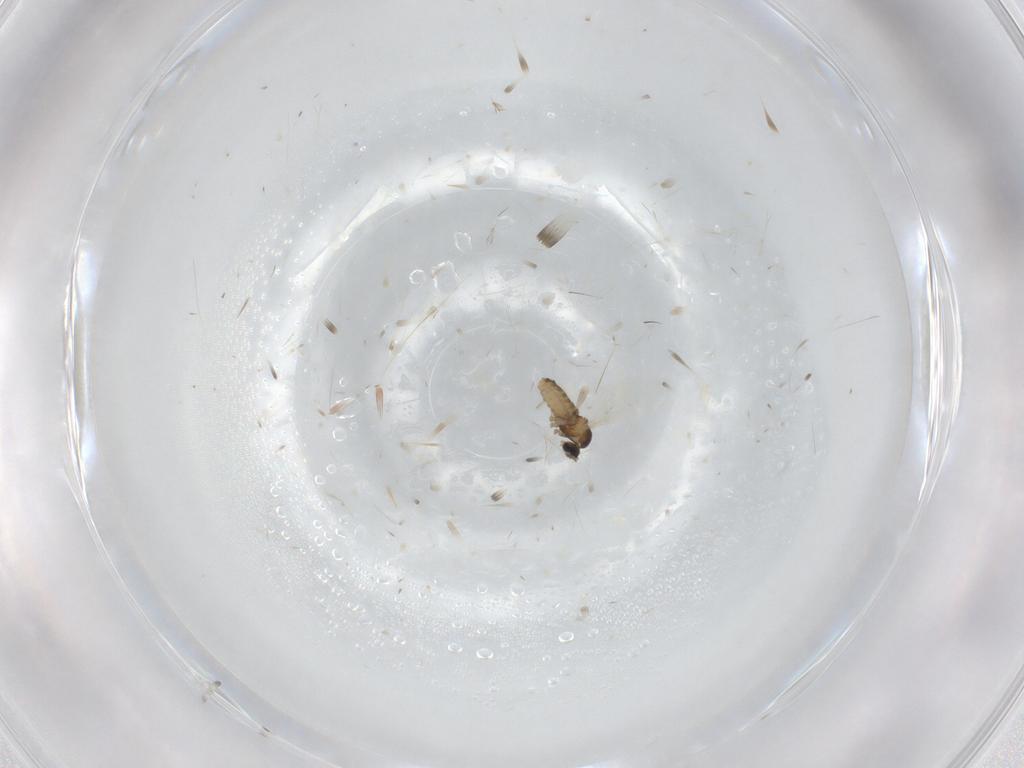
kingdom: Animalia
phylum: Arthropoda
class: Insecta
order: Diptera
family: Cecidomyiidae
